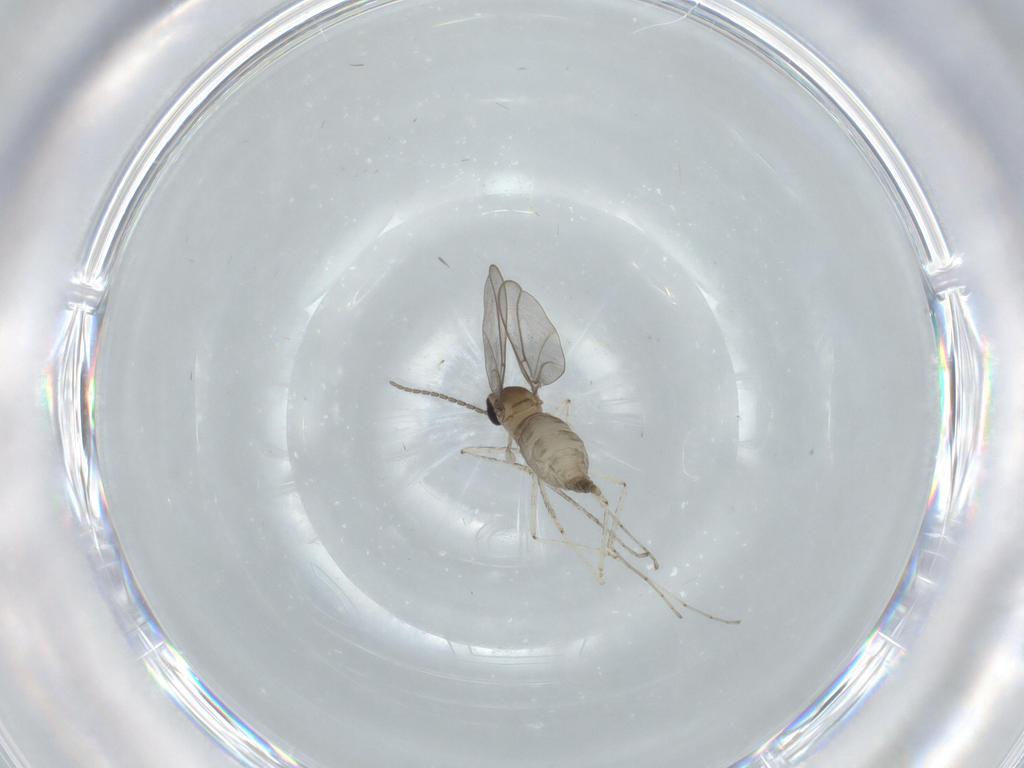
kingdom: Animalia
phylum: Arthropoda
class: Insecta
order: Diptera
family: Cecidomyiidae
